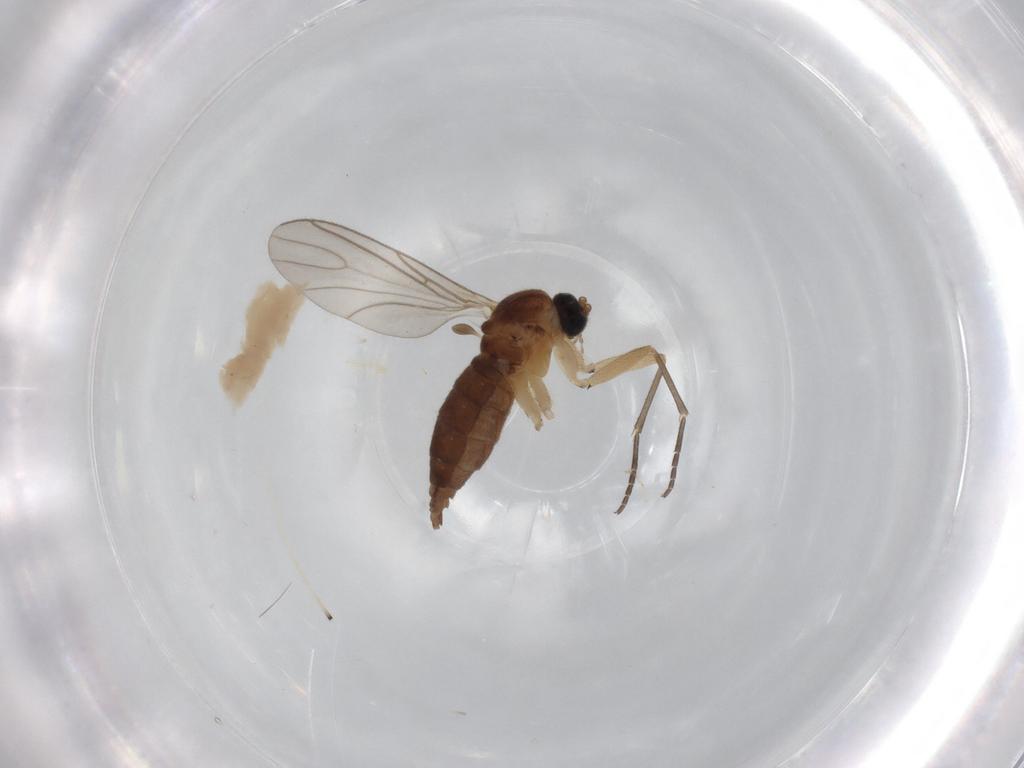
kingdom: Animalia
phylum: Arthropoda
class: Insecta
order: Diptera
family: Sciaridae
